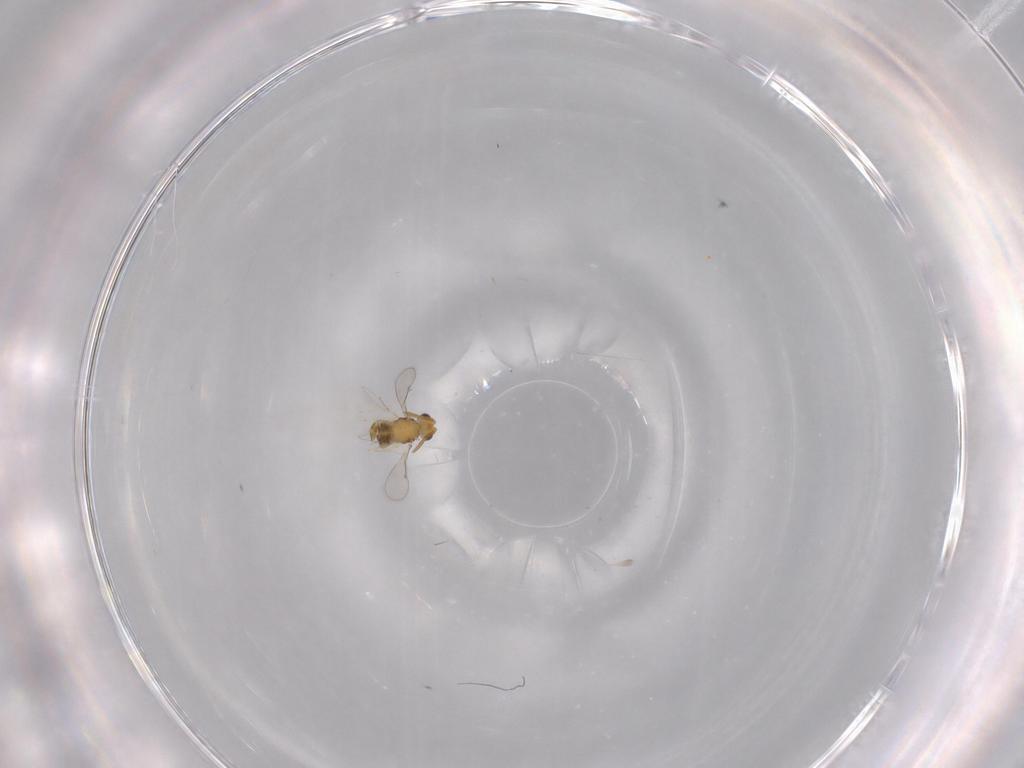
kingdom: Animalia
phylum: Arthropoda
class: Insecta
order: Hymenoptera
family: Aphelinidae
